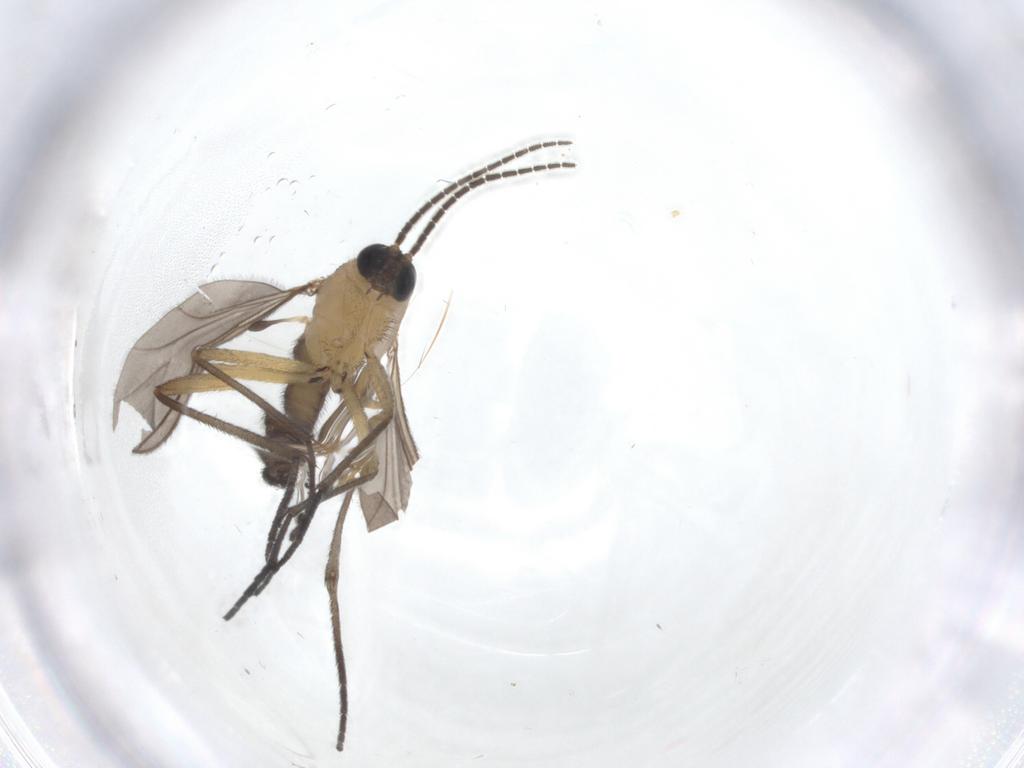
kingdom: Animalia
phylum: Arthropoda
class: Insecta
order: Diptera
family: Sciaridae
